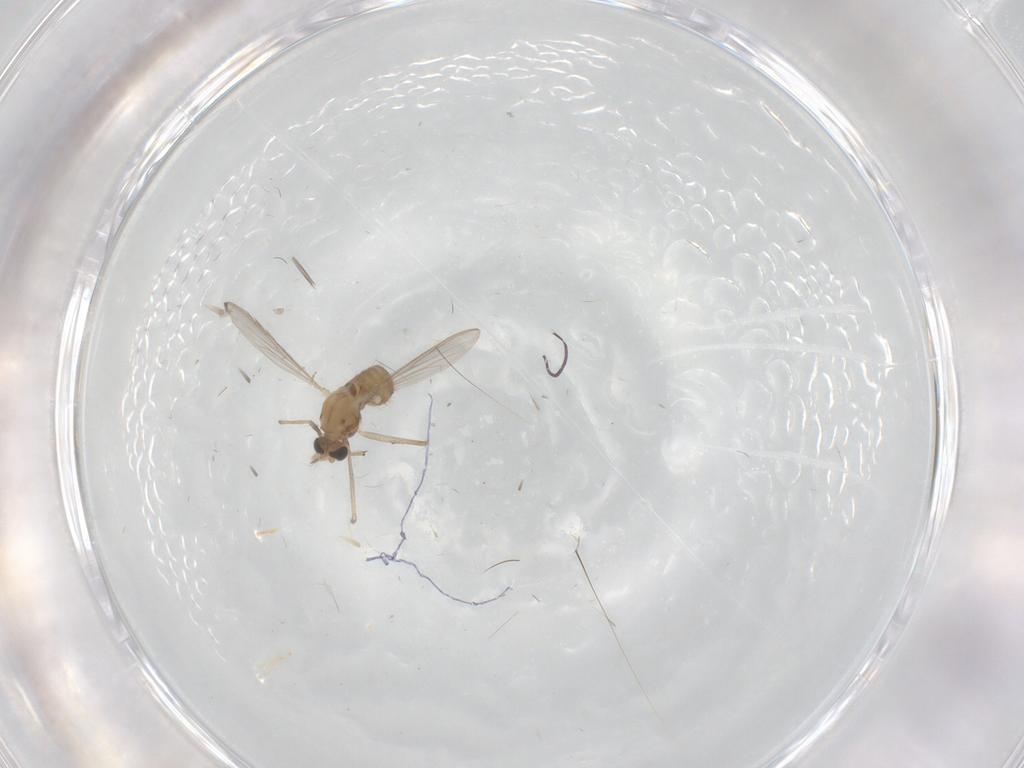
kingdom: Animalia
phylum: Arthropoda
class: Insecta
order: Diptera
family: Chironomidae
